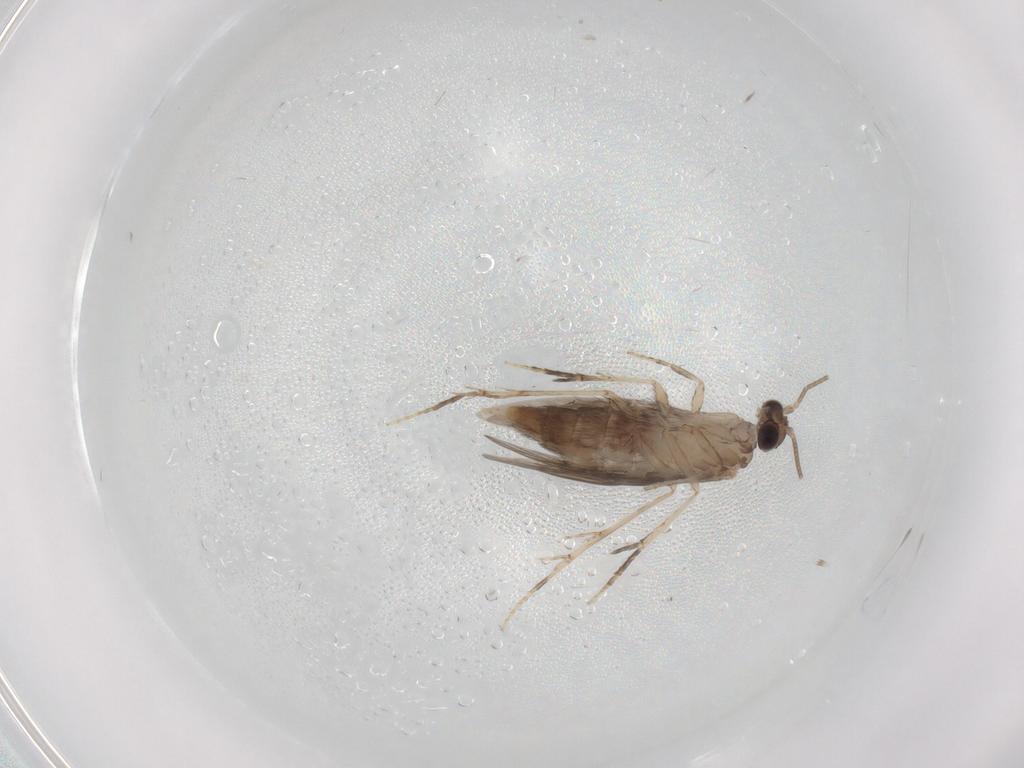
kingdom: Animalia
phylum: Arthropoda
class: Insecta
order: Trichoptera
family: Hydroptilidae
